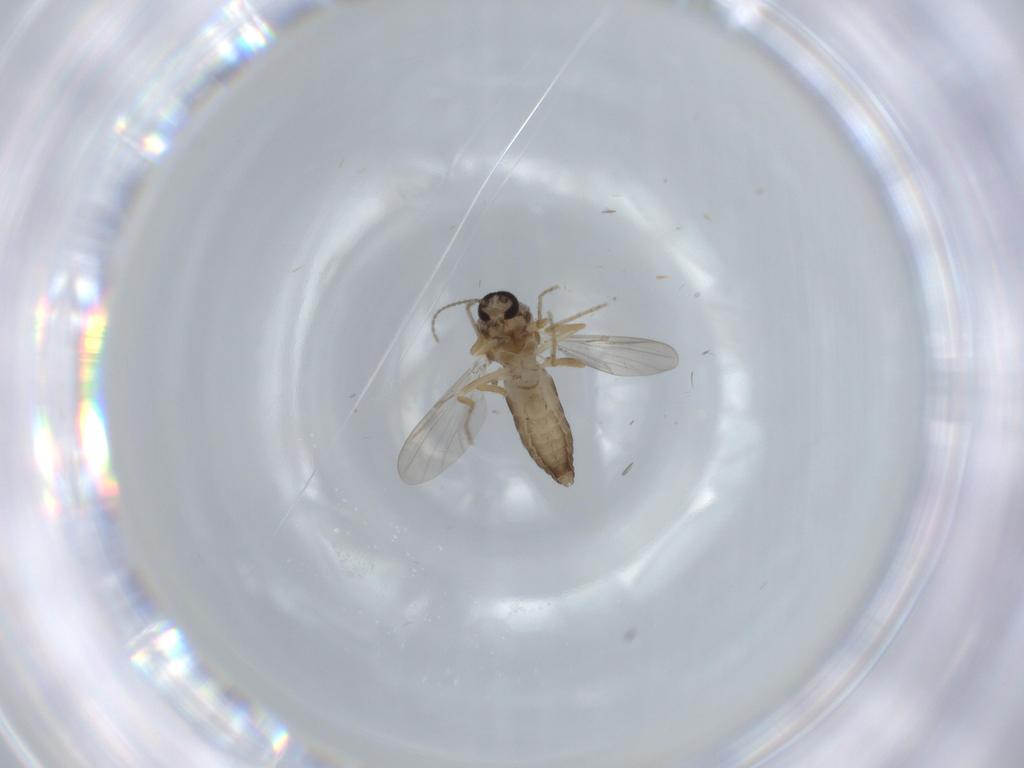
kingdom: Animalia
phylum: Arthropoda
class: Insecta
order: Diptera
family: Ceratopogonidae
